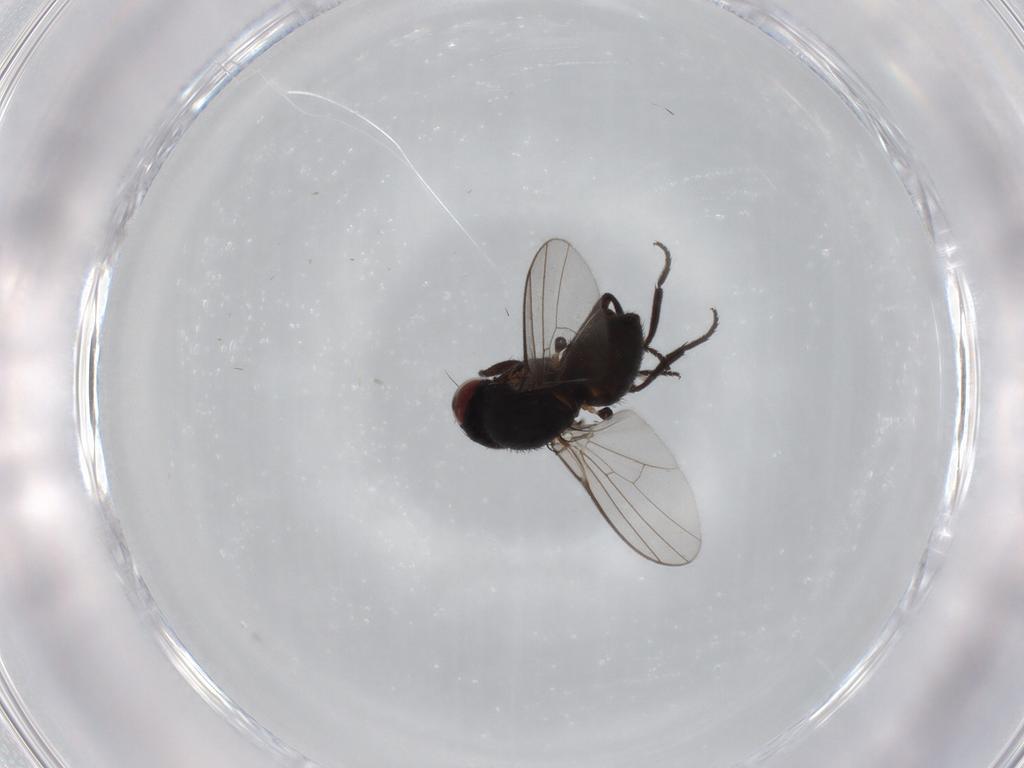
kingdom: Animalia
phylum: Arthropoda
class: Insecta
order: Diptera
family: Agromyzidae
